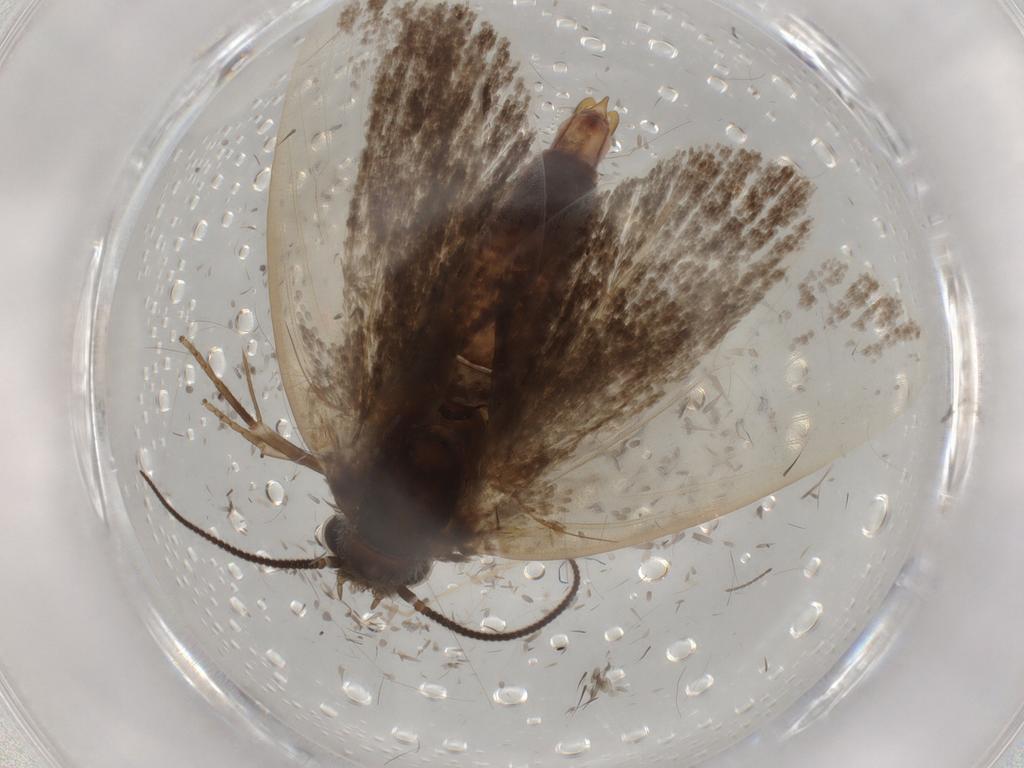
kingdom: Animalia
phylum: Arthropoda
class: Insecta
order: Lepidoptera
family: Tineidae
